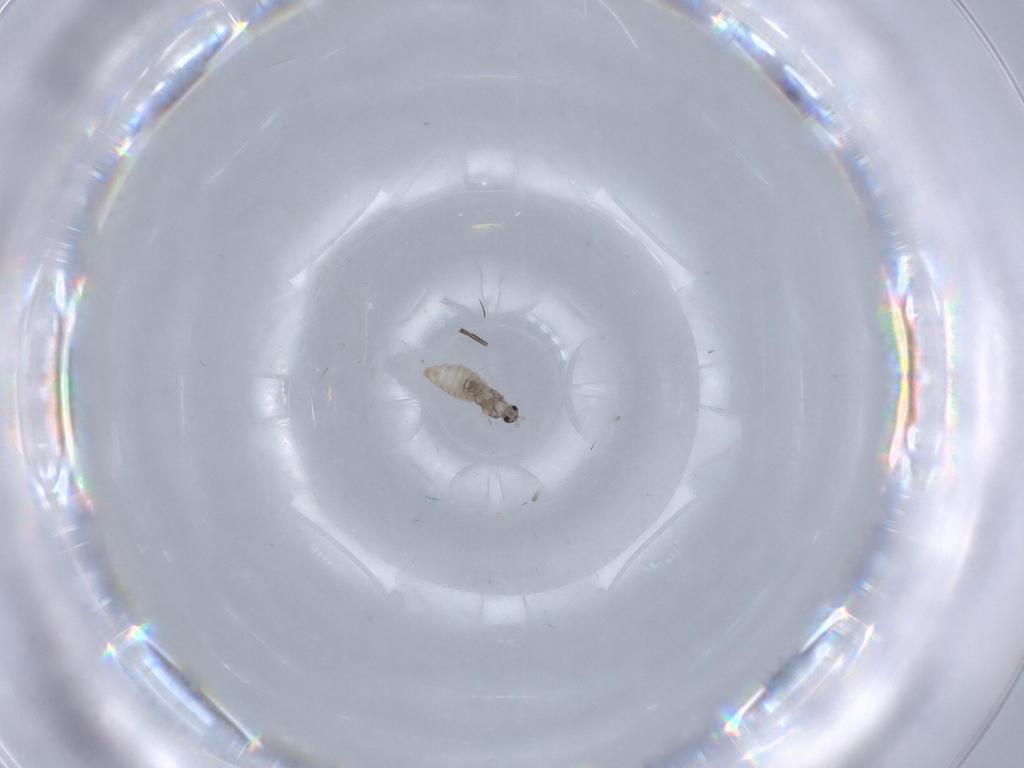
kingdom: Animalia
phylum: Arthropoda
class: Insecta
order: Diptera
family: Cecidomyiidae
